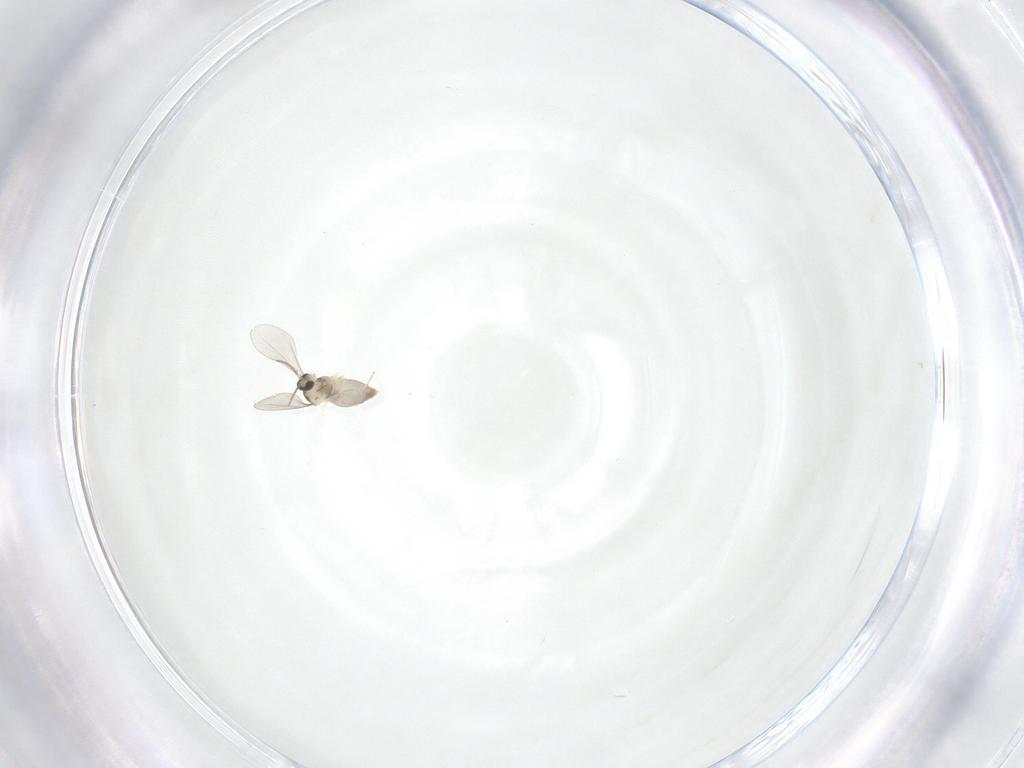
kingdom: Animalia
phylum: Arthropoda
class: Insecta
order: Diptera
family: Cecidomyiidae
